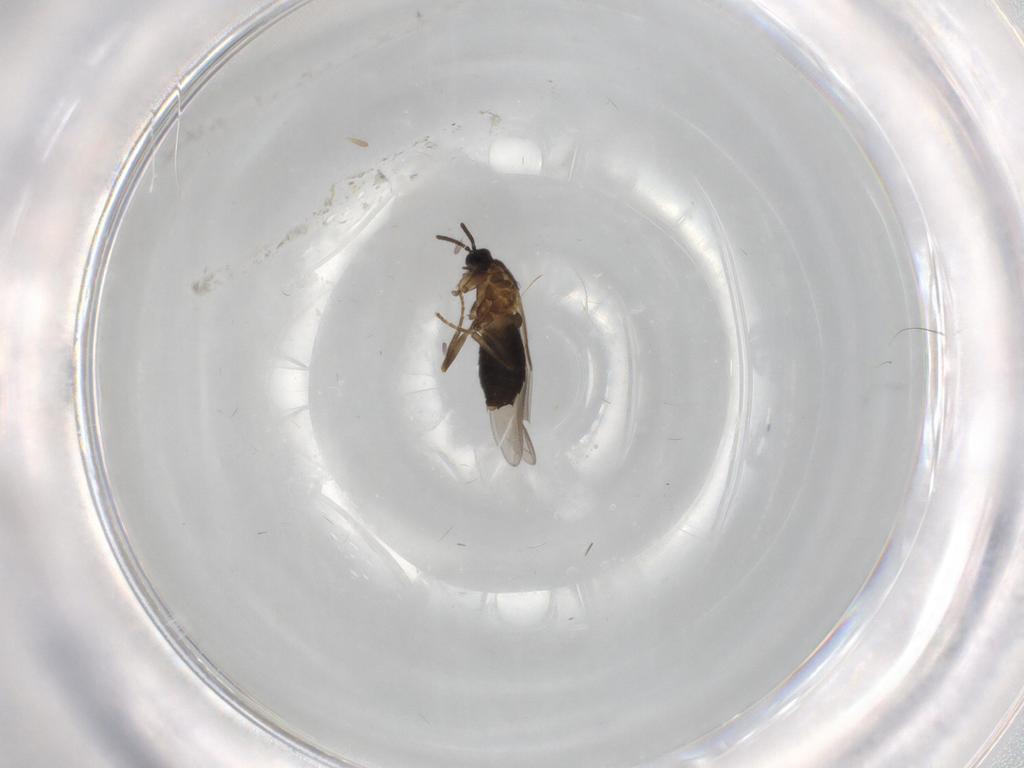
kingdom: Animalia
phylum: Arthropoda
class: Insecta
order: Diptera
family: Scatopsidae
